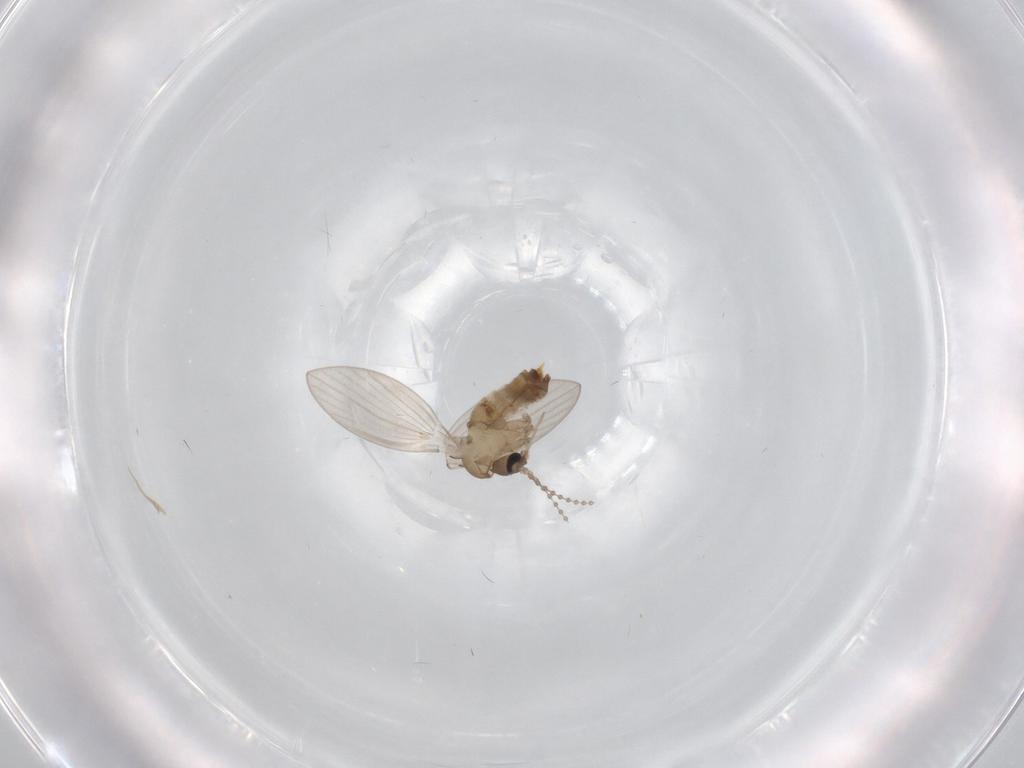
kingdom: Animalia
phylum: Arthropoda
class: Insecta
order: Diptera
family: Psychodidae
